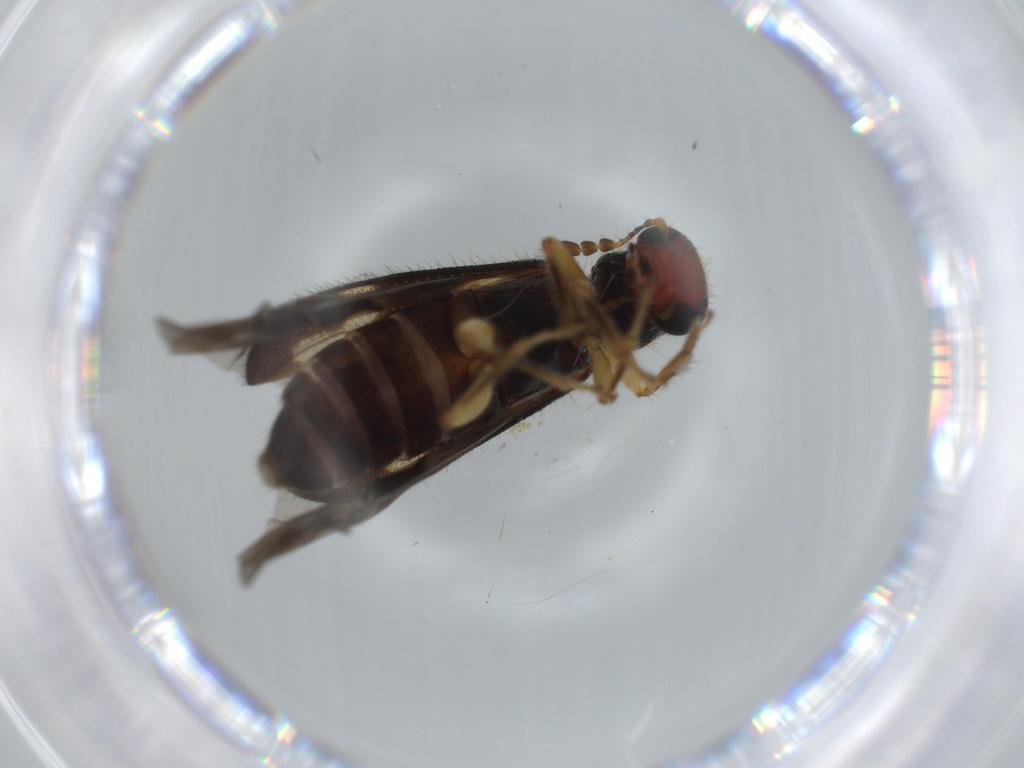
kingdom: Animalia
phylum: Arthropoda
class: Insecta
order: Coleoptera
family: Cleridae
